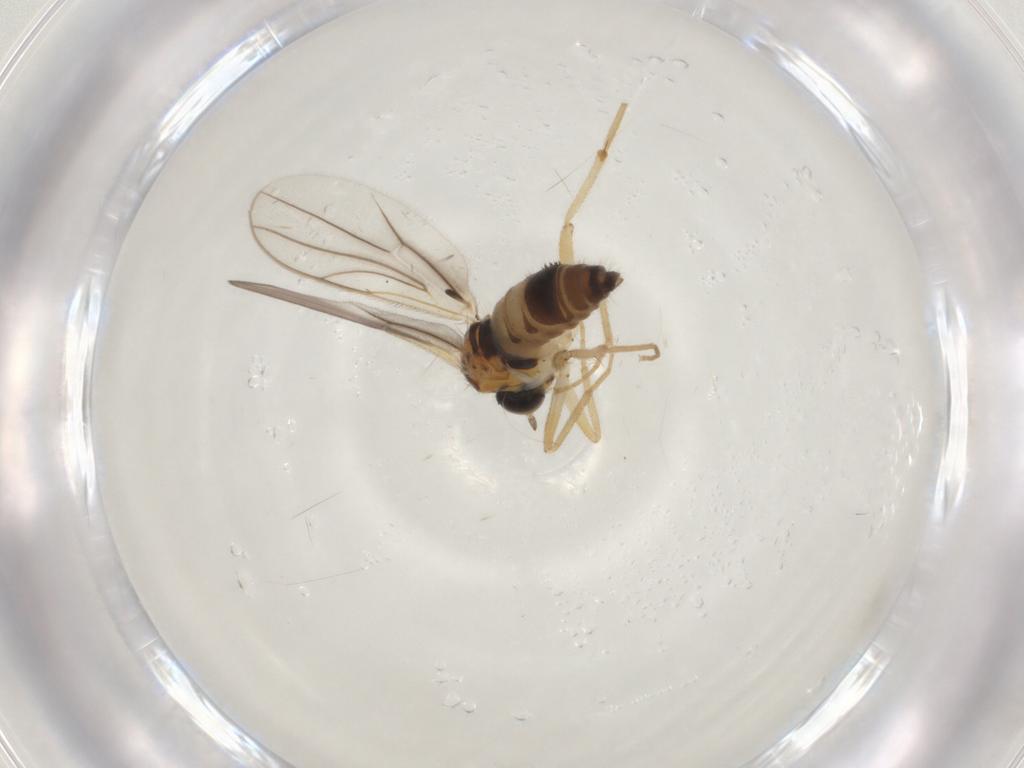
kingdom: Animalia
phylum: Arthropoda
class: Insecta
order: Diptera
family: Hybotidae
